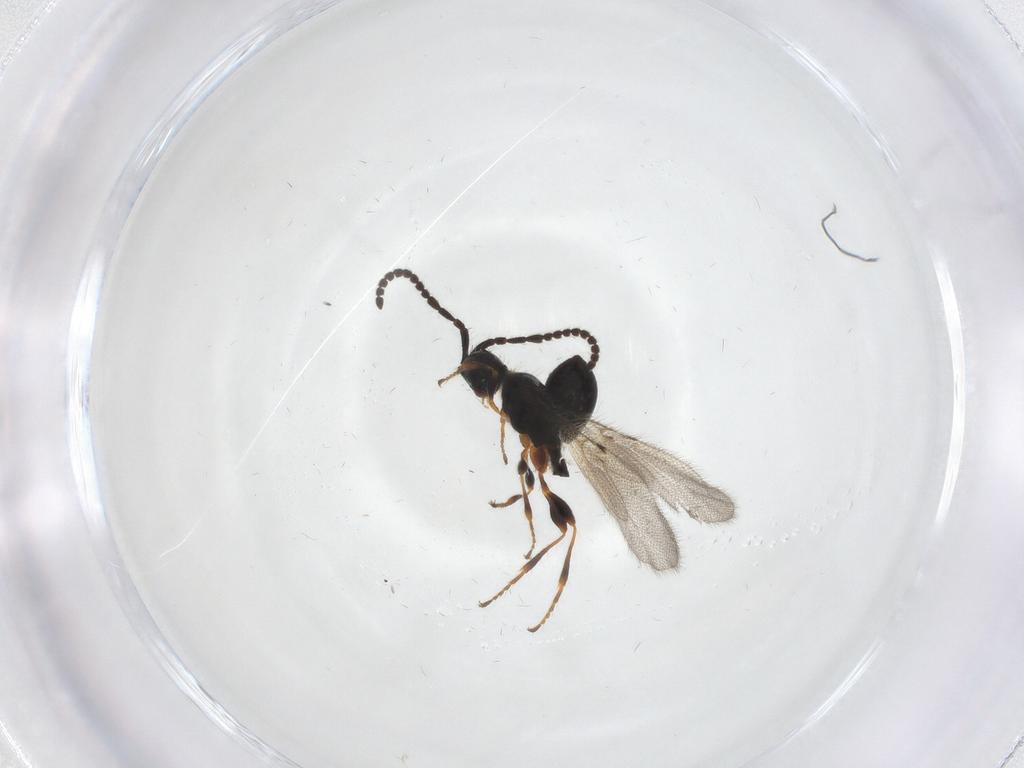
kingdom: Animalia
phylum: Arthropoda
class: Insecta
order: Hymenoptera
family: Diapriidae
